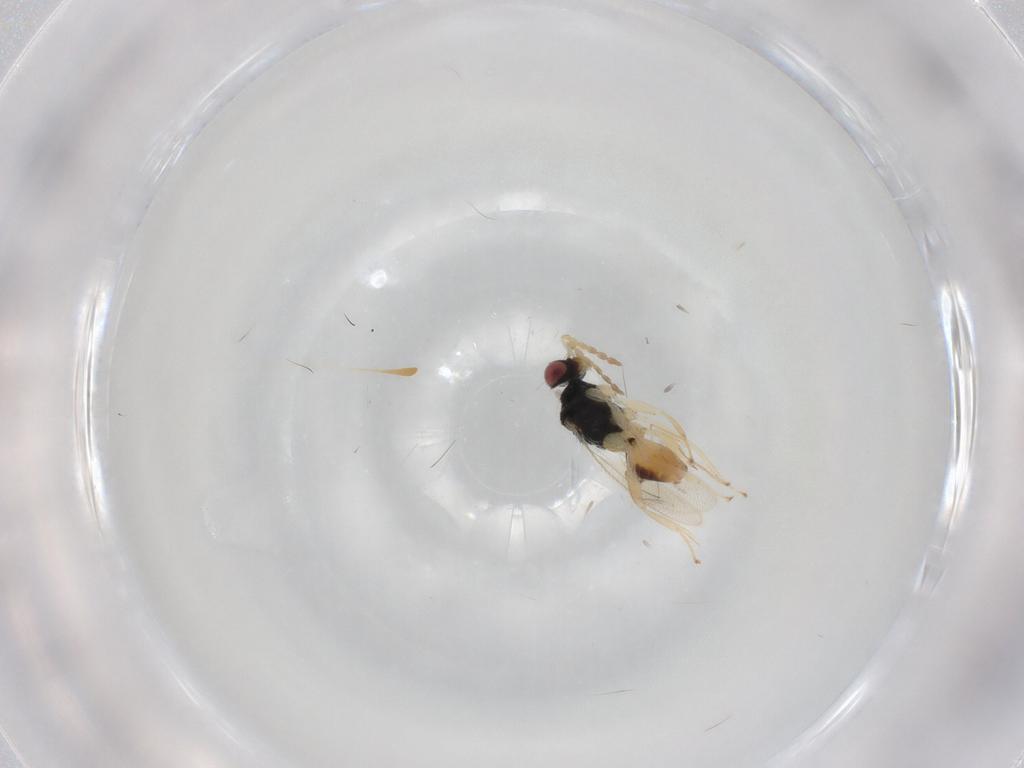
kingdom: Animalia
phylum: Arthropoda
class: Insecta
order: Hymenoptera
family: Eulophidae
